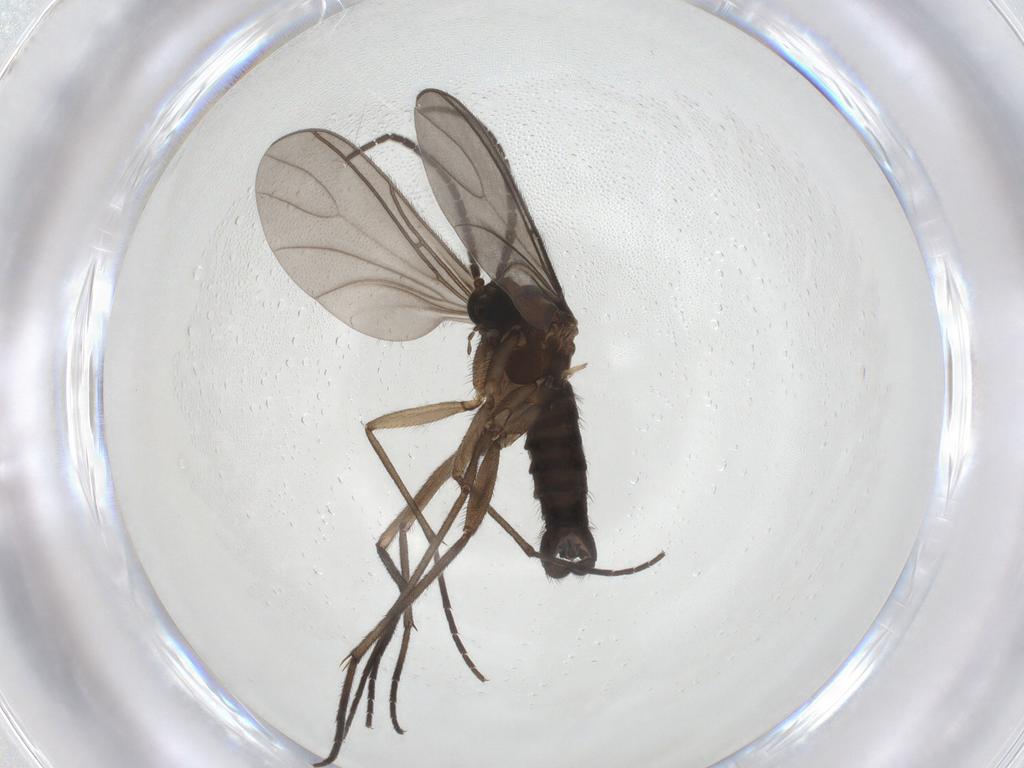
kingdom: Animalia
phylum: Arthropoda
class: Insecta
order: Diptera
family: Sciaridae
